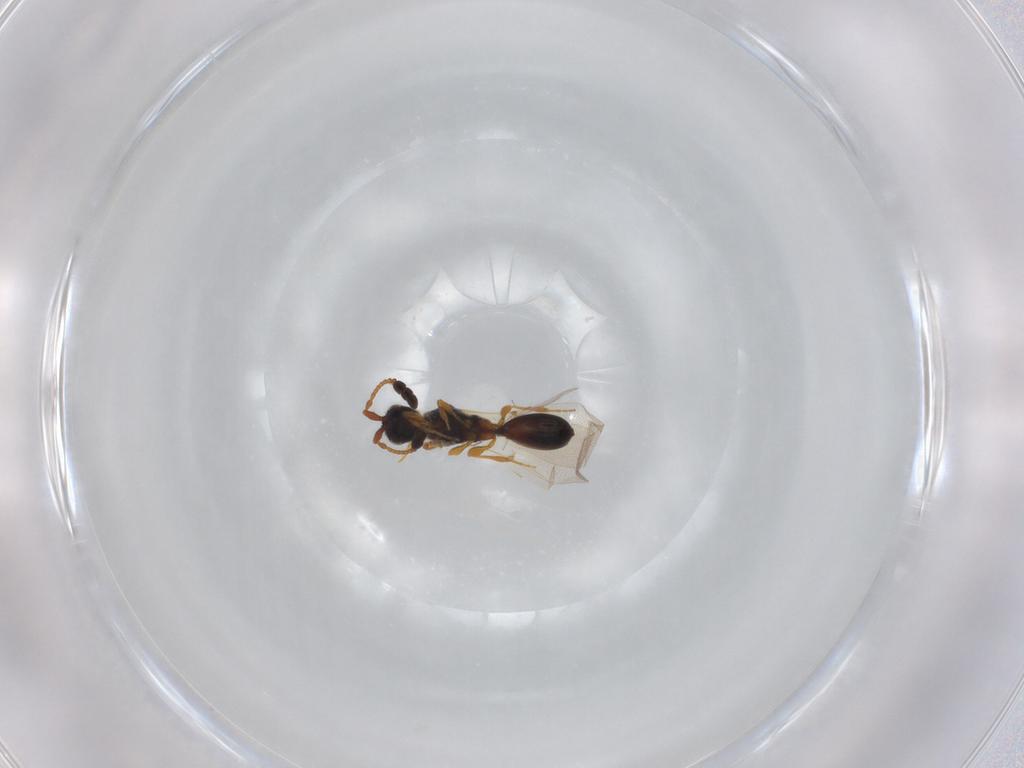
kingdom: Animalia
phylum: Arthropoda
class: Insecta
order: Hymenoptera
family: Diapriidae
